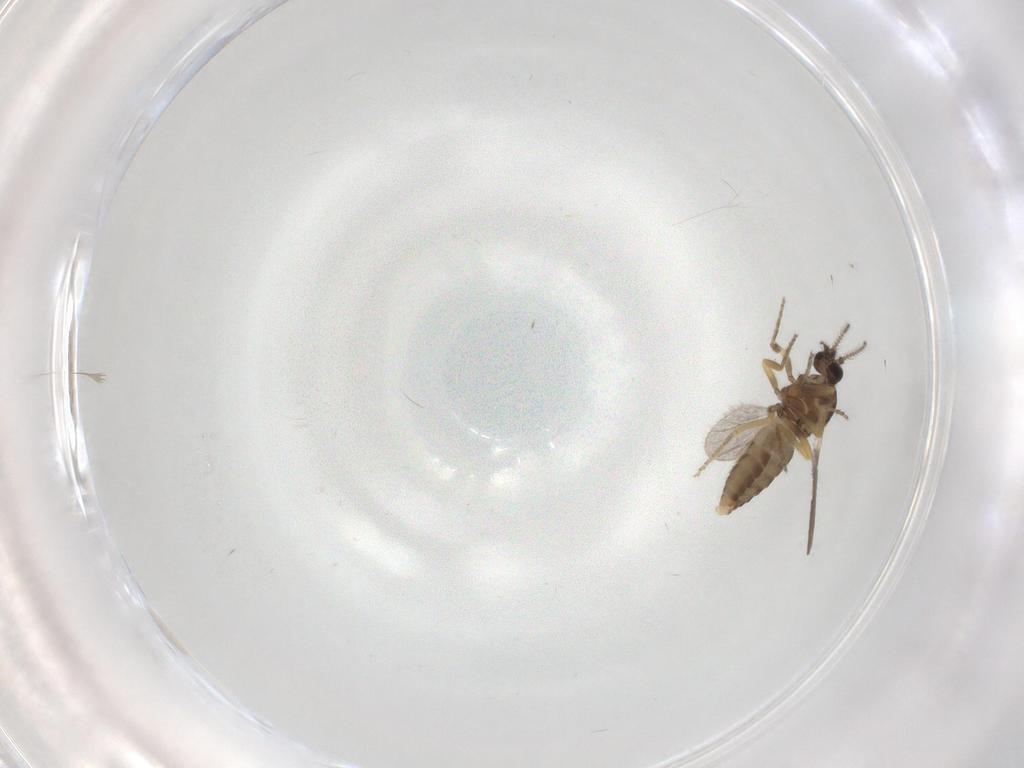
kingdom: Animalia
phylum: Arthropoda
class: Insecta
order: Diptera
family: Ceratopogonidae
